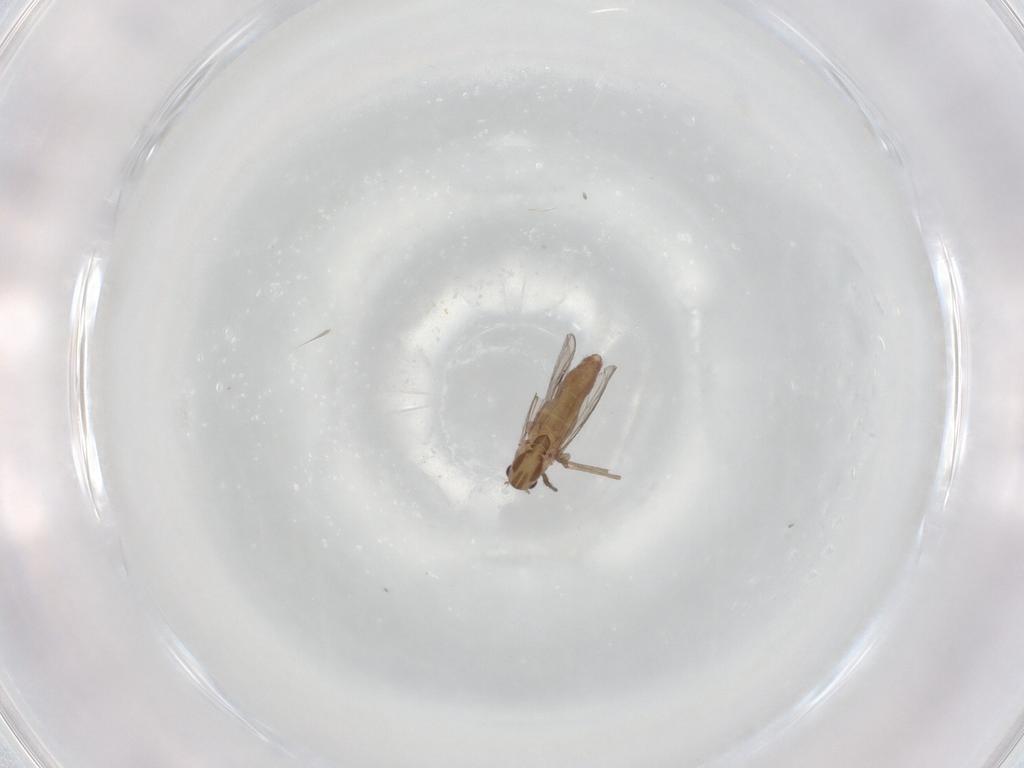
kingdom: Animalia
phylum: Arthropoda
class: Insecta
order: Diptera
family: Chironomidae
